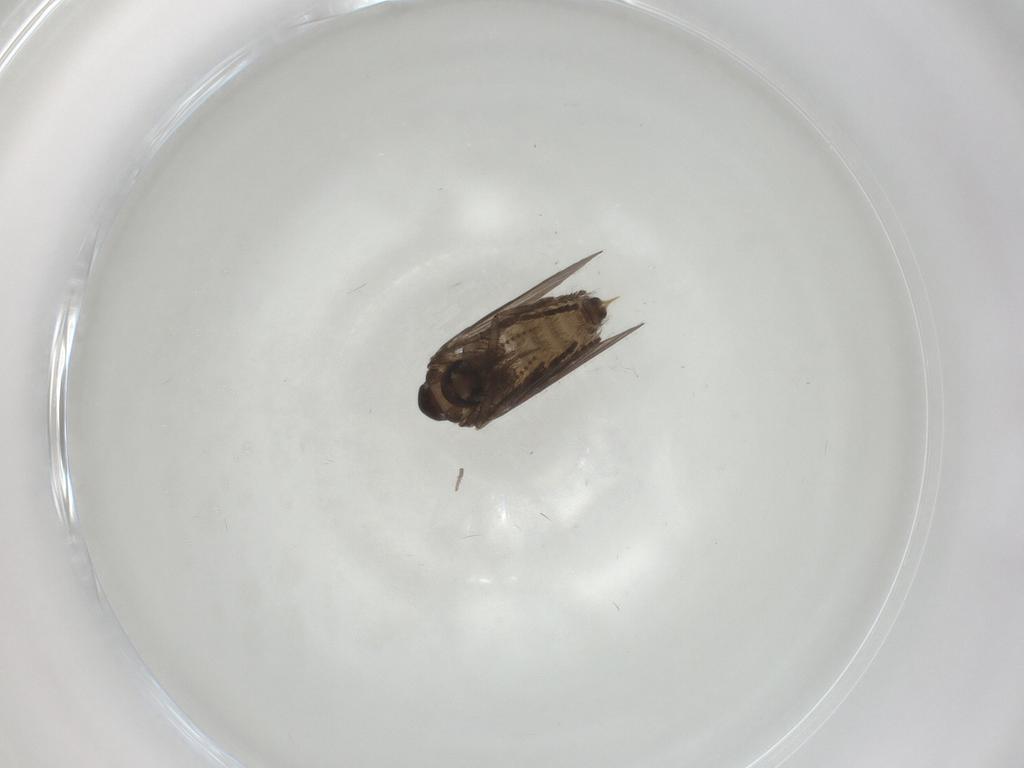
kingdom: Animalia
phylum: Arthropoda
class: Insecta
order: Diptera
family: Psychodidae
